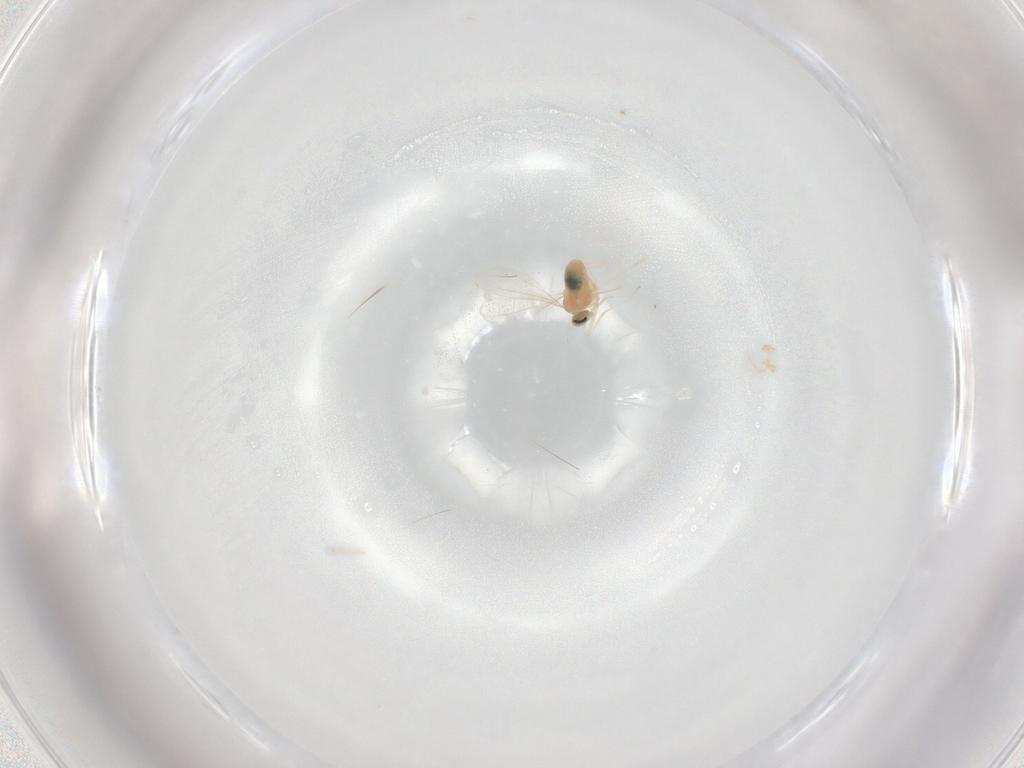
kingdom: Animalia
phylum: Arthropoda
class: Insecta
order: Diptera
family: Cecidomyiidae
